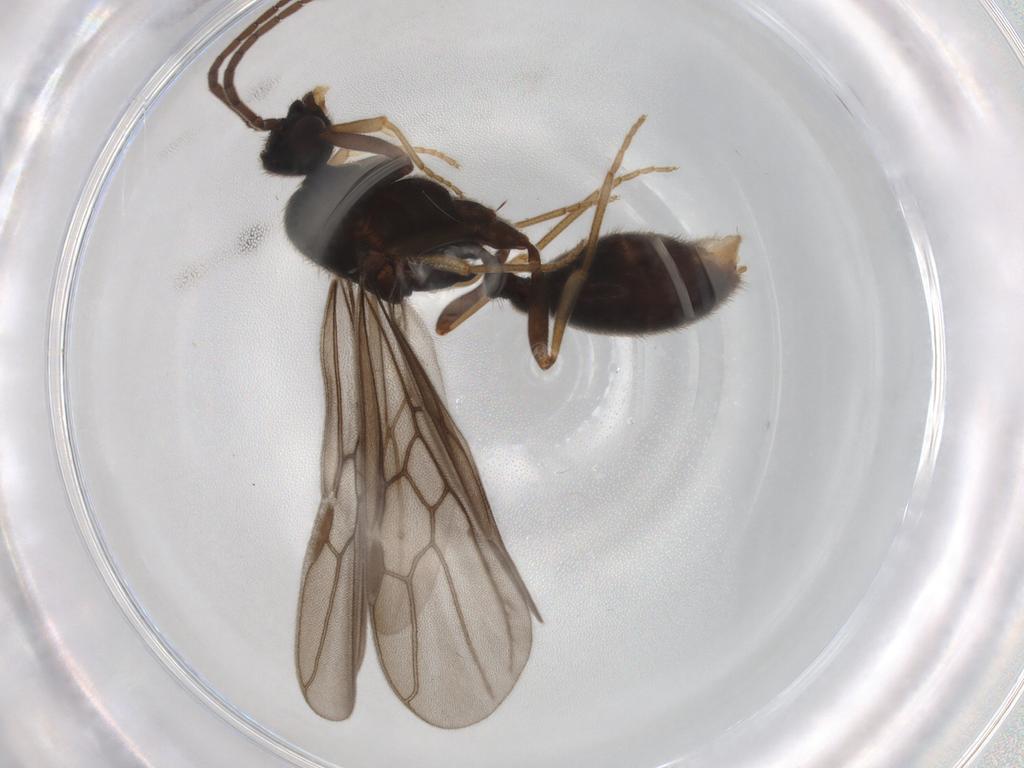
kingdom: Animalia
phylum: Arthropoda
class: Insecta
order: Hymenoptera
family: Formicidae
